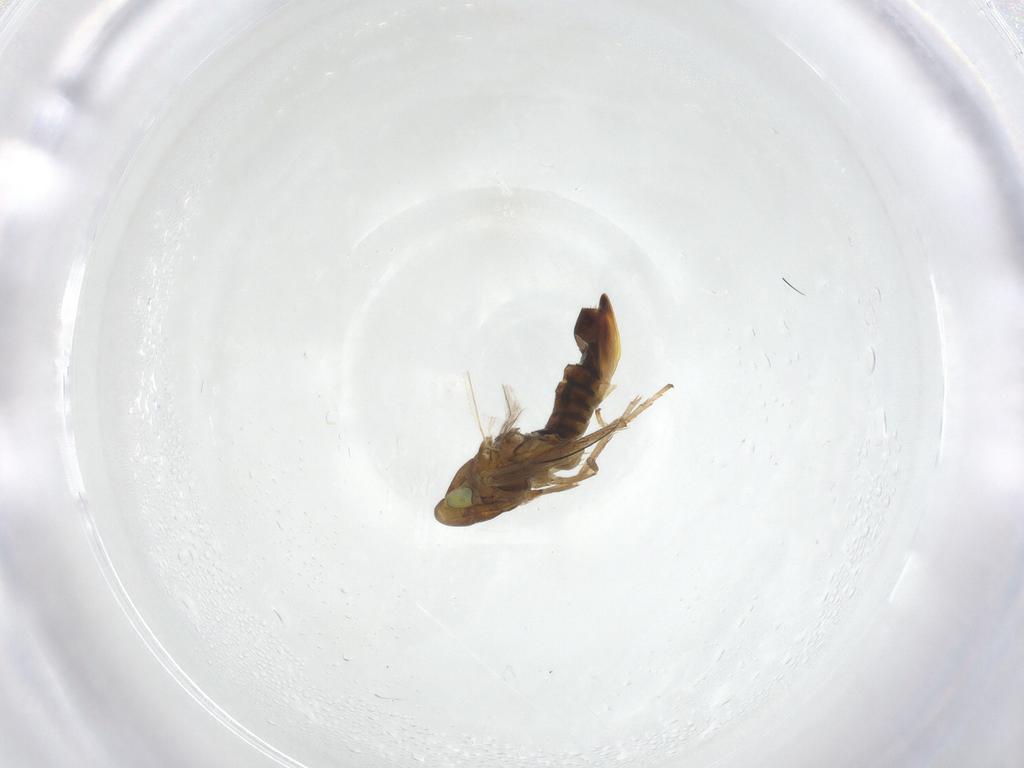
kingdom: Animalia
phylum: Arthropoda
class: Insecta
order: Hemiptera
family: Cicadellidae
